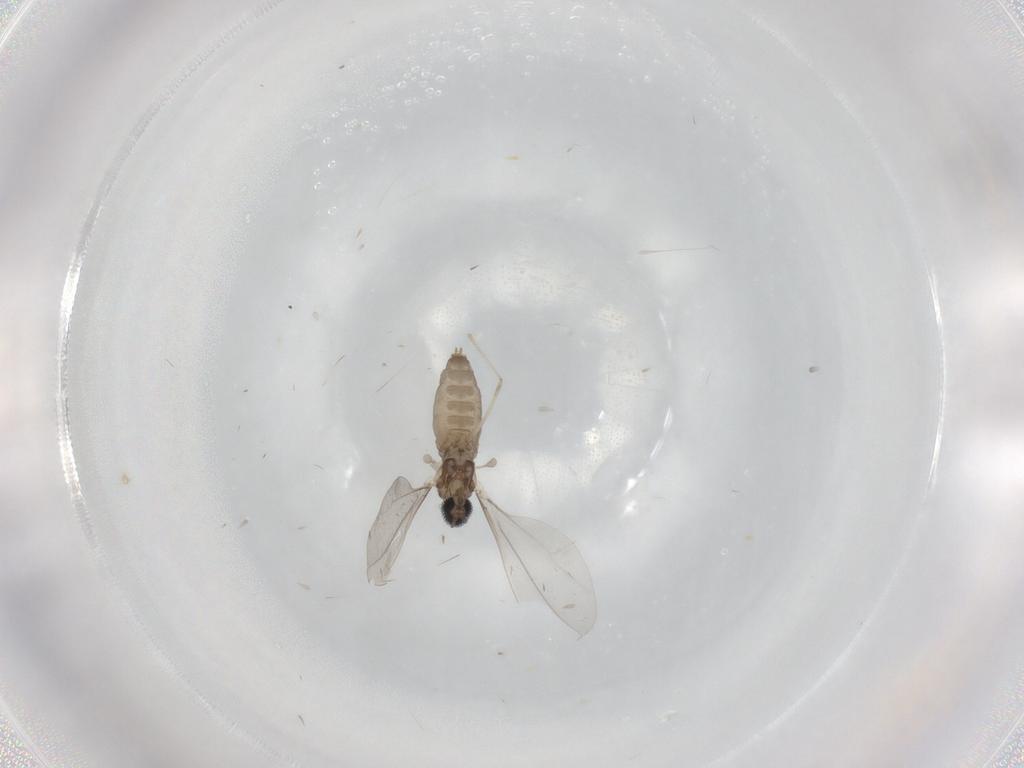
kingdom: Animalia
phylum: Arthropoda
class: Insecta
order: Diptera
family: Cecidomyiidae
